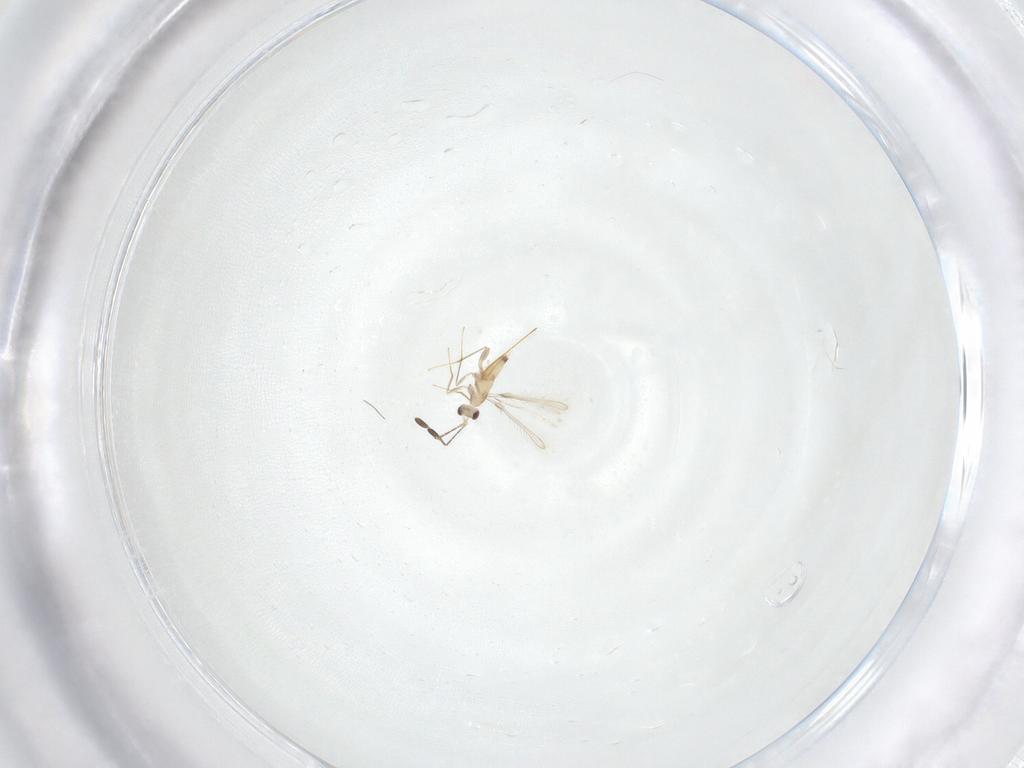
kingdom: Animalia
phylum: Arthropoda
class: Insecta
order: Hymenoptera
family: Mymaridae
